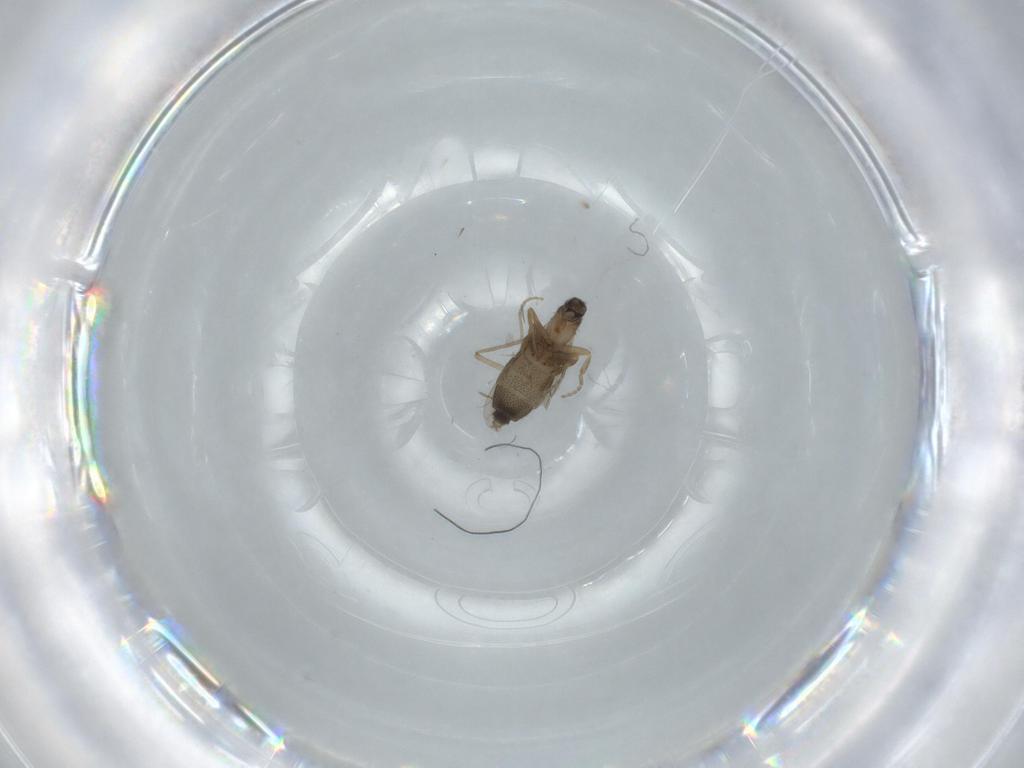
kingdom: Animalia
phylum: Arthropoda
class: Insecta
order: Diptera
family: Phoridae
